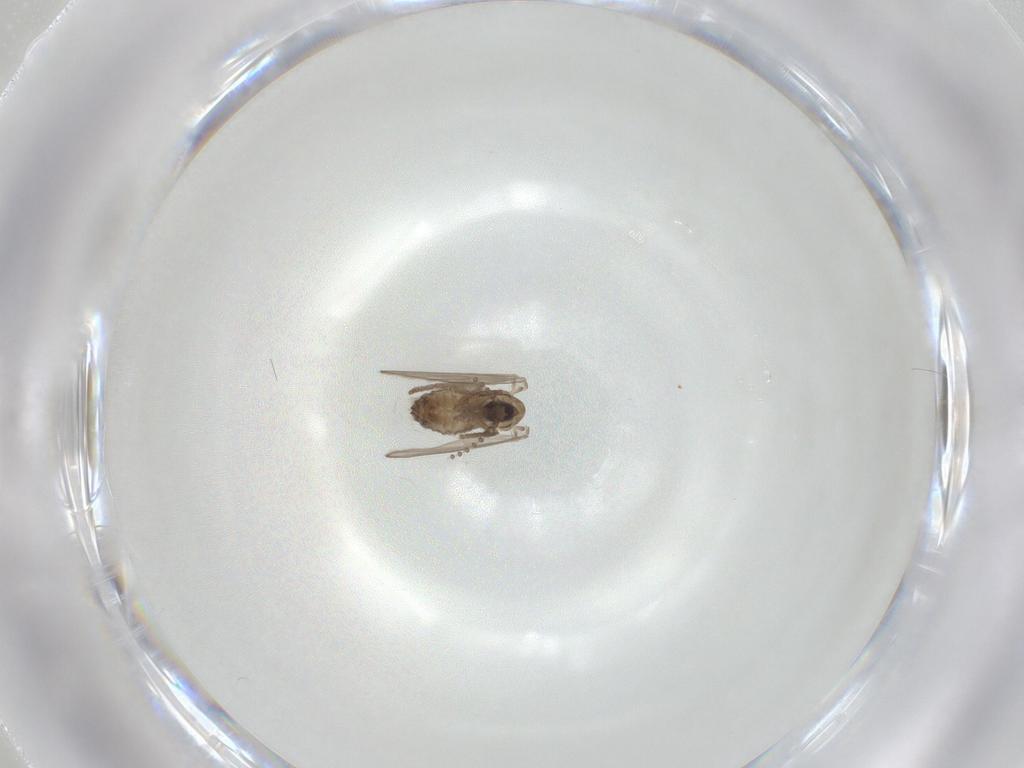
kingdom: Animalia
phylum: Arthropoda
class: Insecta
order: Diptera
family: Psychodidae
